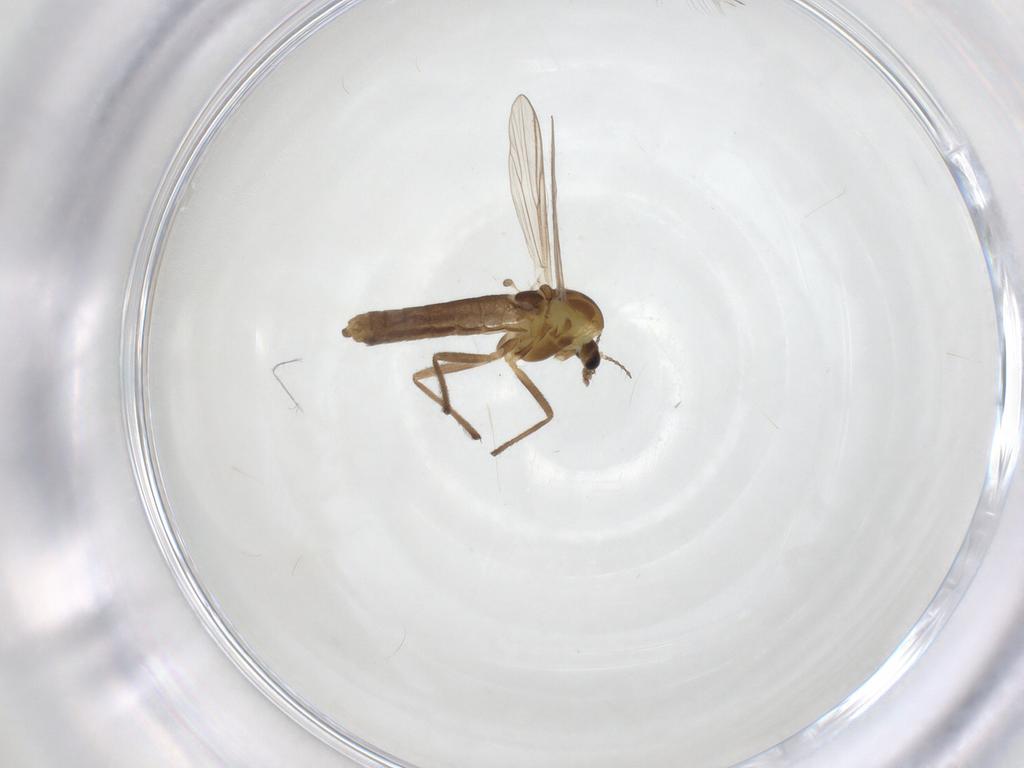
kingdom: Animalia
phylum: Arthropoda
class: Insecta
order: Diptera
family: Chironomidae
